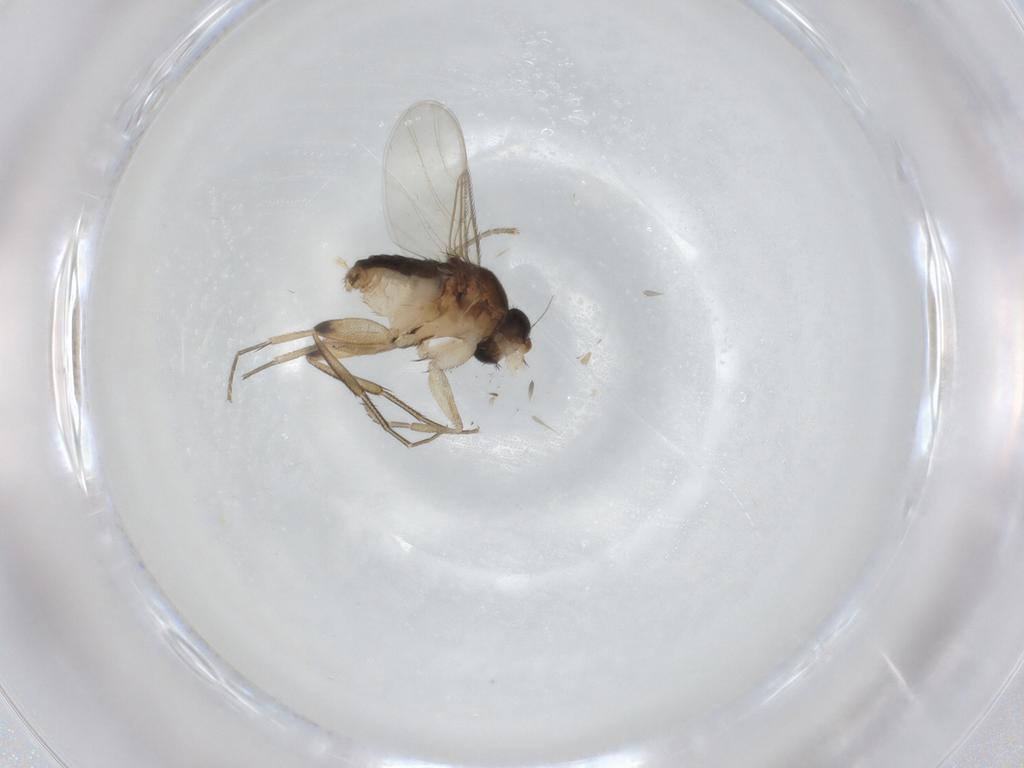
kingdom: Animalia
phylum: Arthropoda
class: Insecta
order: Diptera
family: Phoridae
